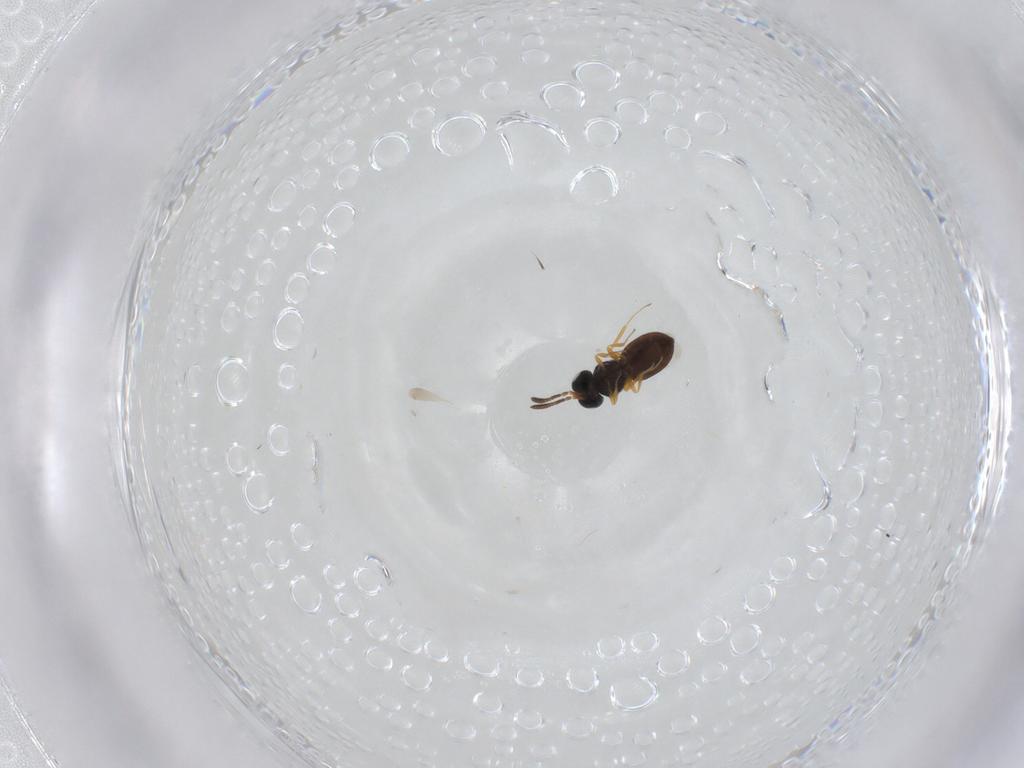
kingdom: Animalia
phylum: Arthropoda
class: Insecta
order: Hymenoptera
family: Scelionidae
